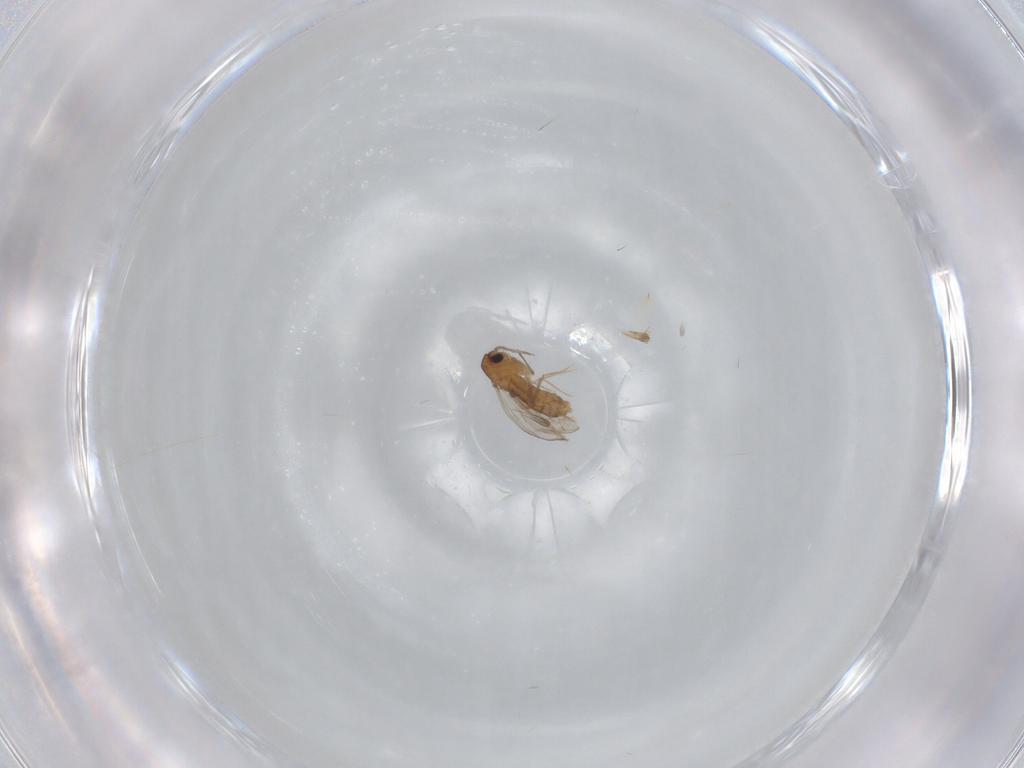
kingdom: Animalia
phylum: Arthropoda
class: Insecta
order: Diptera
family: Chironomidae
